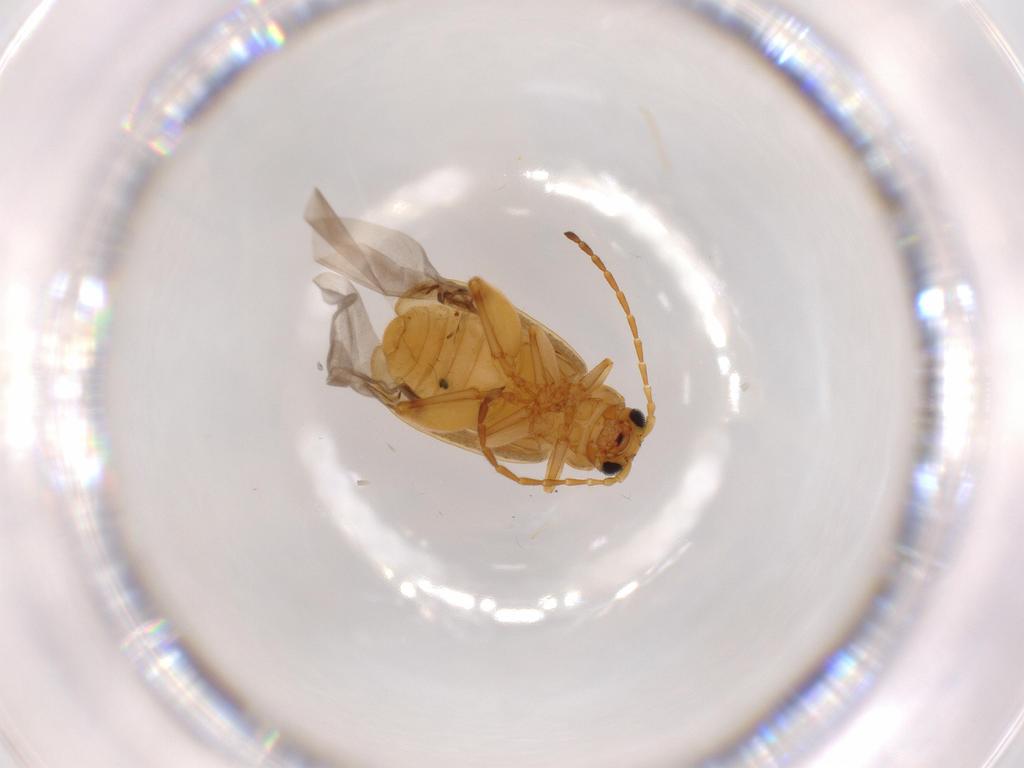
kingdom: Animalia
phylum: Arthropoda
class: Insecta
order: Coleoptera
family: Chrysomelidae
